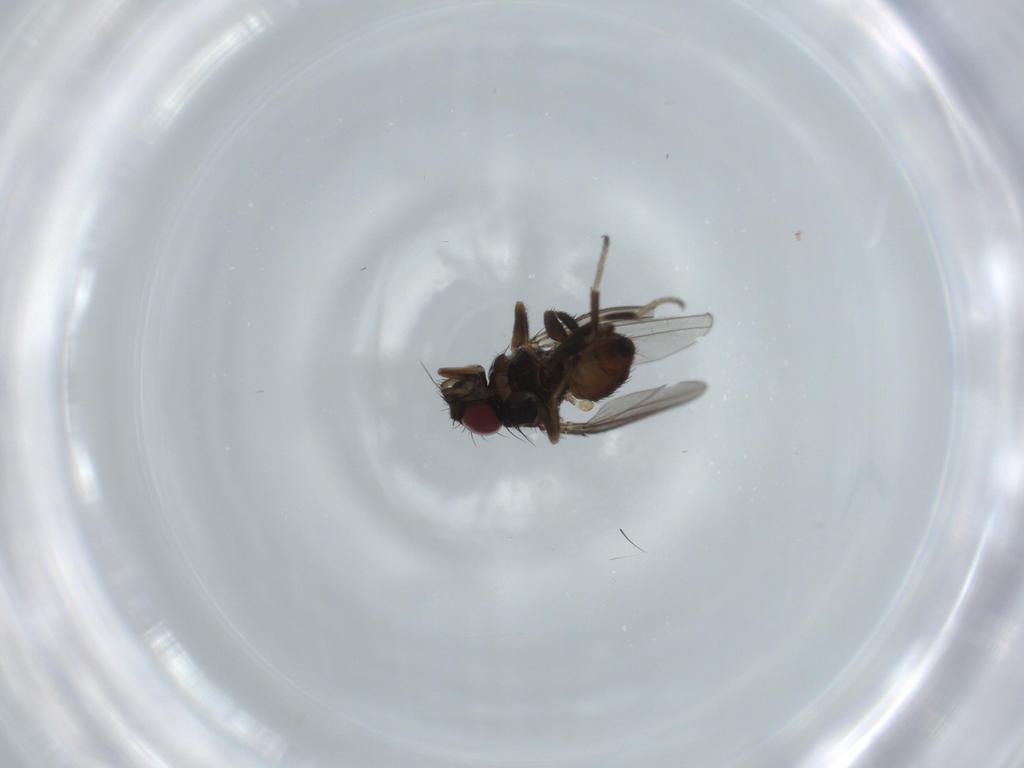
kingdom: Animalia
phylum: Arthropoda
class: Insecta
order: Diptera
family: Milichiidae
